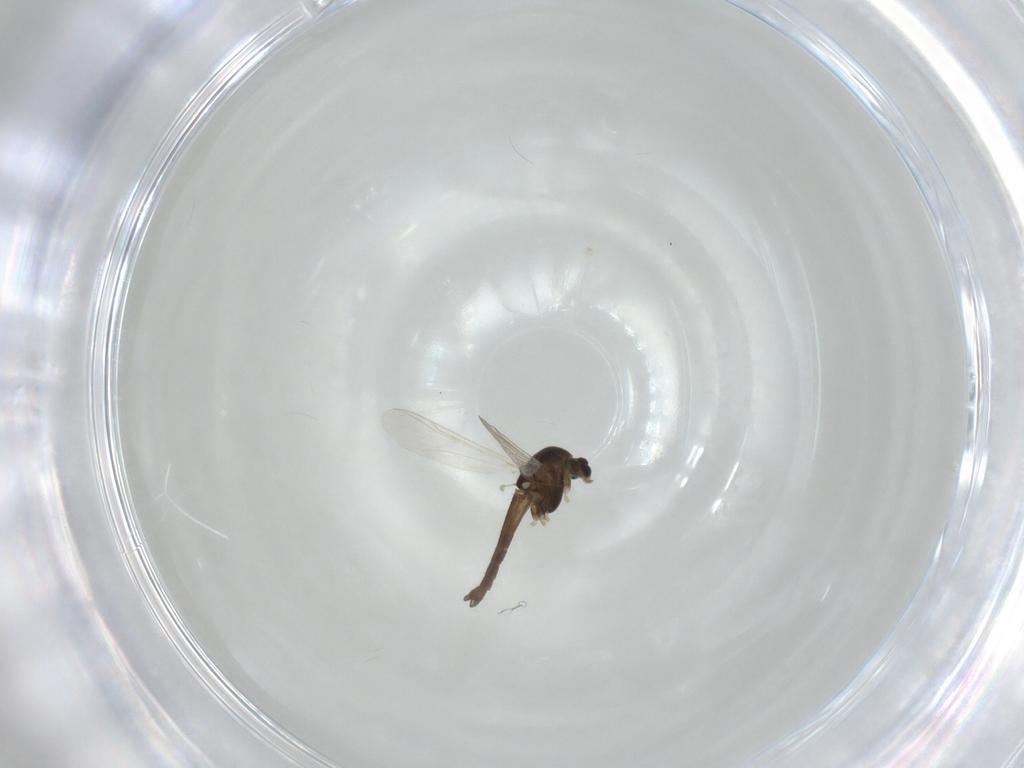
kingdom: Animalia
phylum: Arthropoda
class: Insecta
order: Diptera
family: Chironomidae
